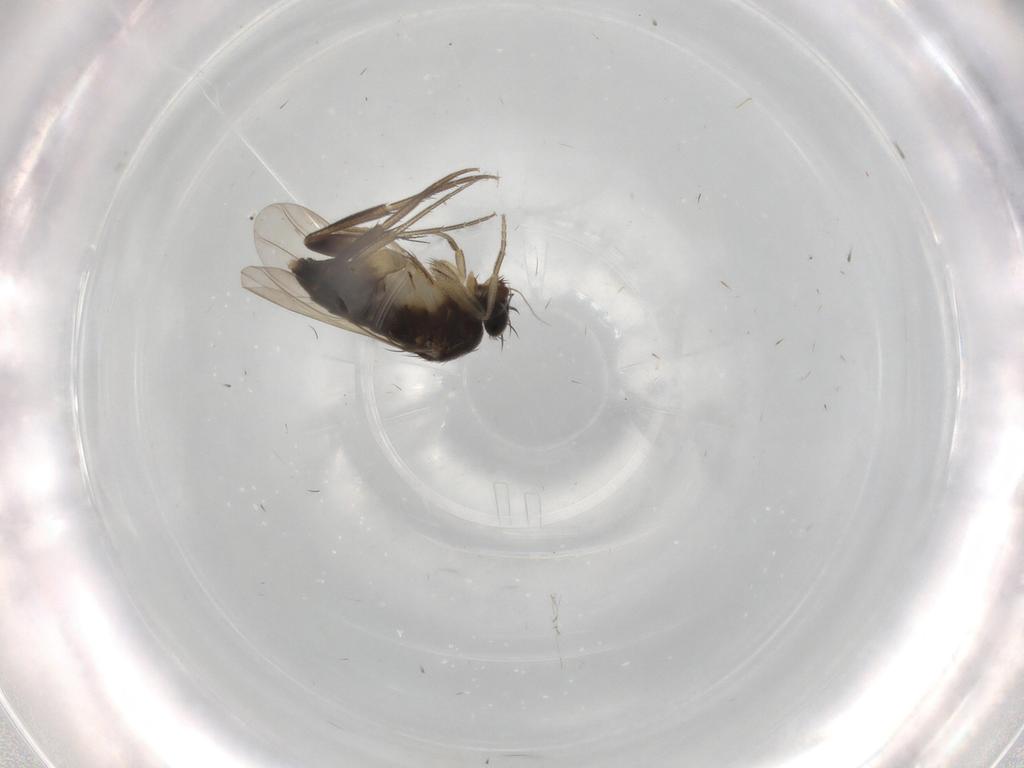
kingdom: Animalia
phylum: Arthropoda
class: Insecta
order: Diptera
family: Phoridae
